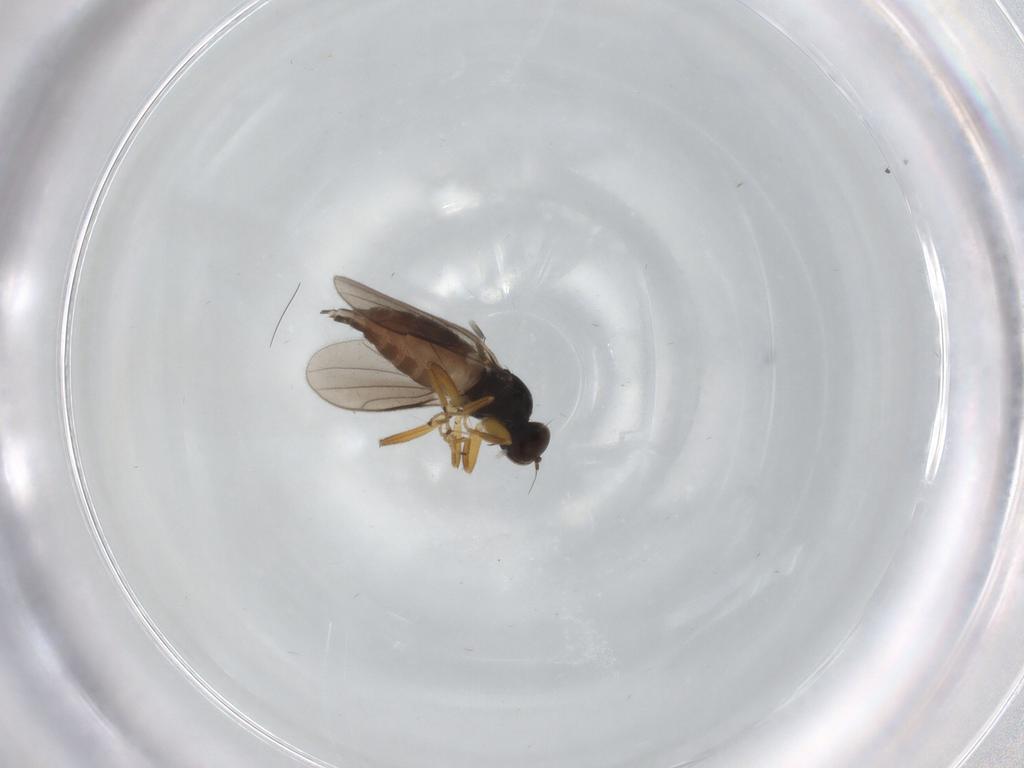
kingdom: Animalia
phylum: Arthropoda
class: Insecta
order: Diptera
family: Hybotidae
